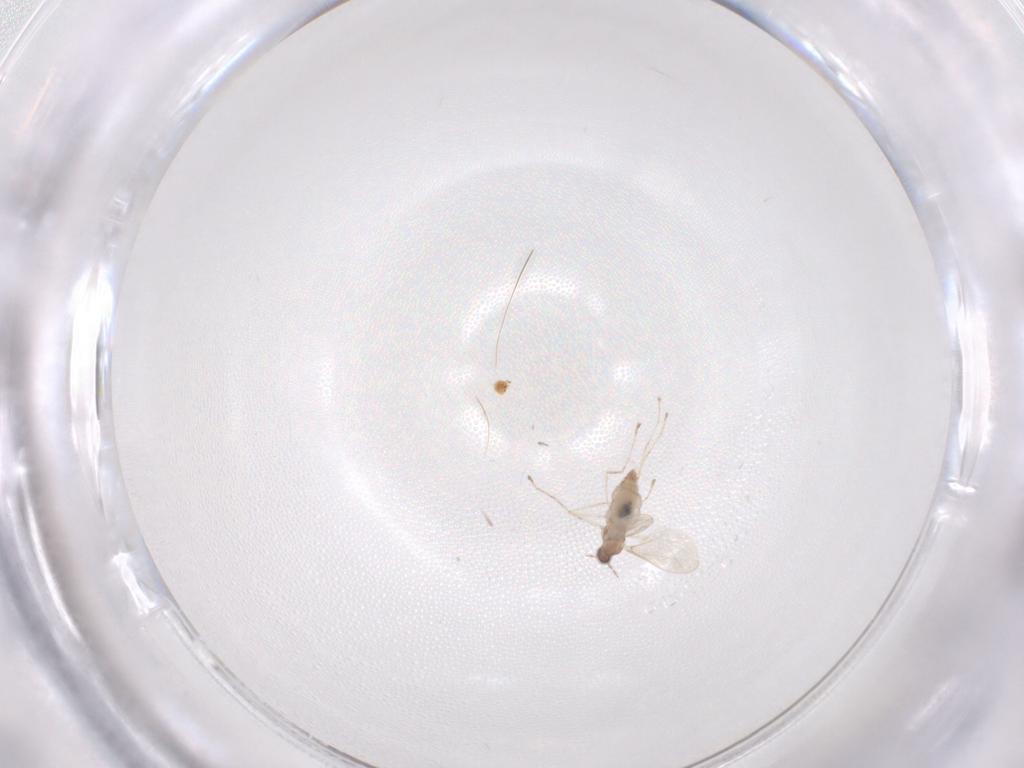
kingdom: Animalia
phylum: Arthropoda
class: Insecta
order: Diptera
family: Cecidomyiidae
